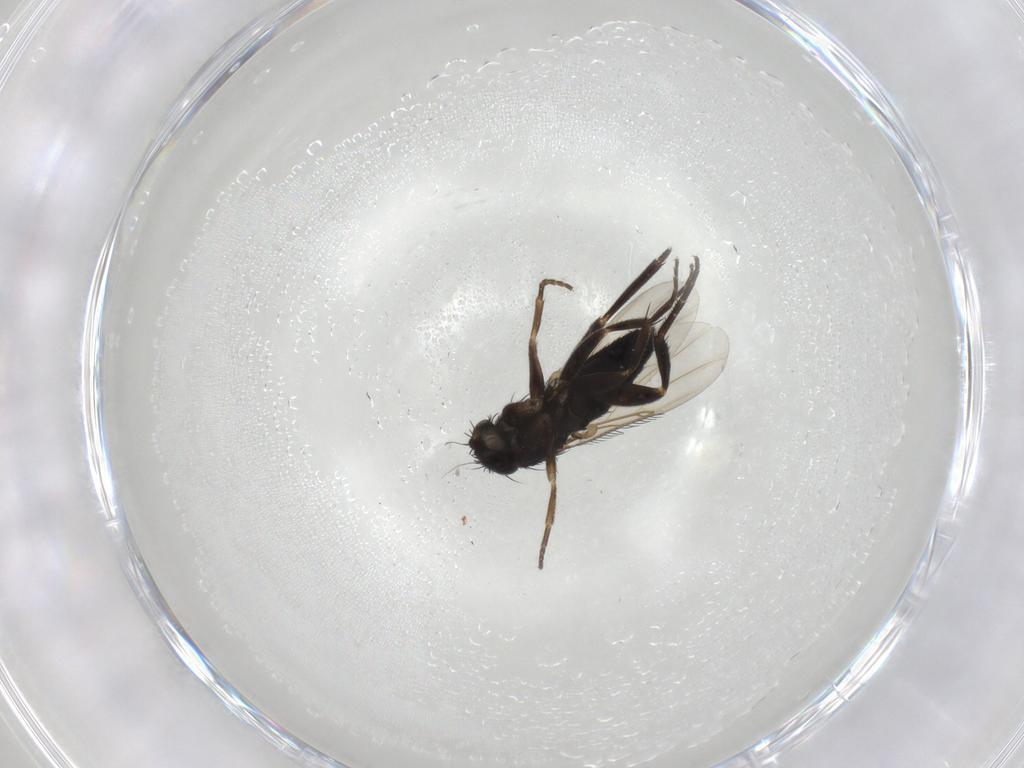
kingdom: Animalia
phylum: Arthropoda
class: Insecta
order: Diptera
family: Phoridae
